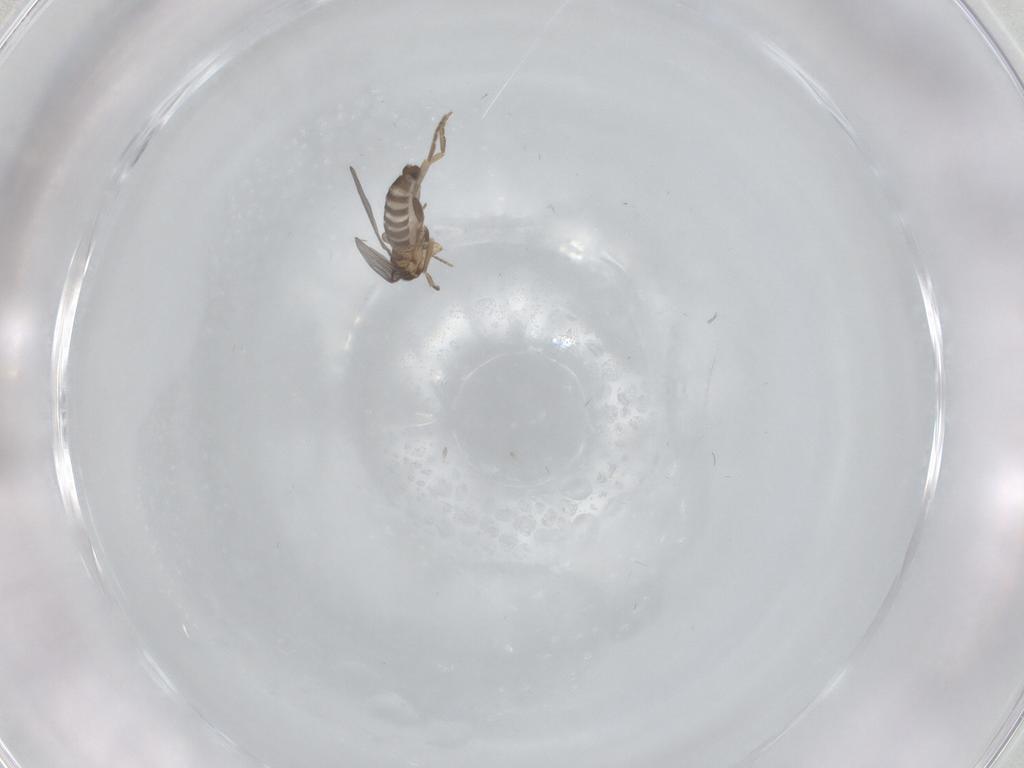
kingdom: Animalia
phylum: Arthropoda
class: Insecta
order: Diptera
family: Cecidomyiidae
